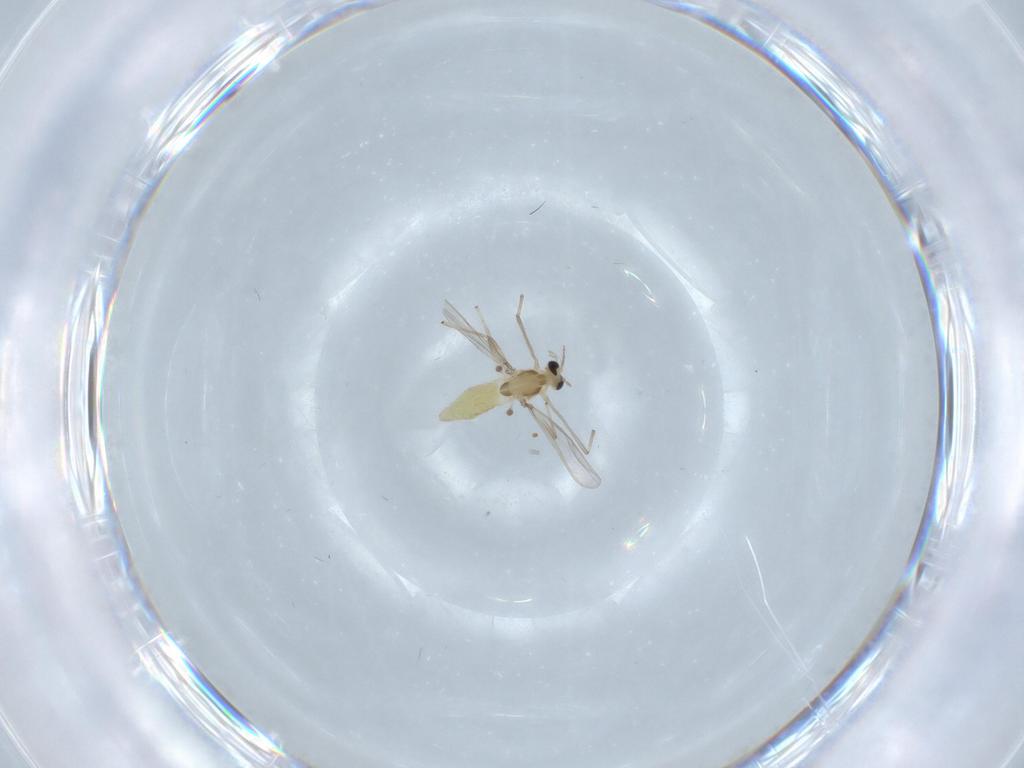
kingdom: Animalia
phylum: Arthropoda
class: Insecta
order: Diptera
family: Chironomidae
